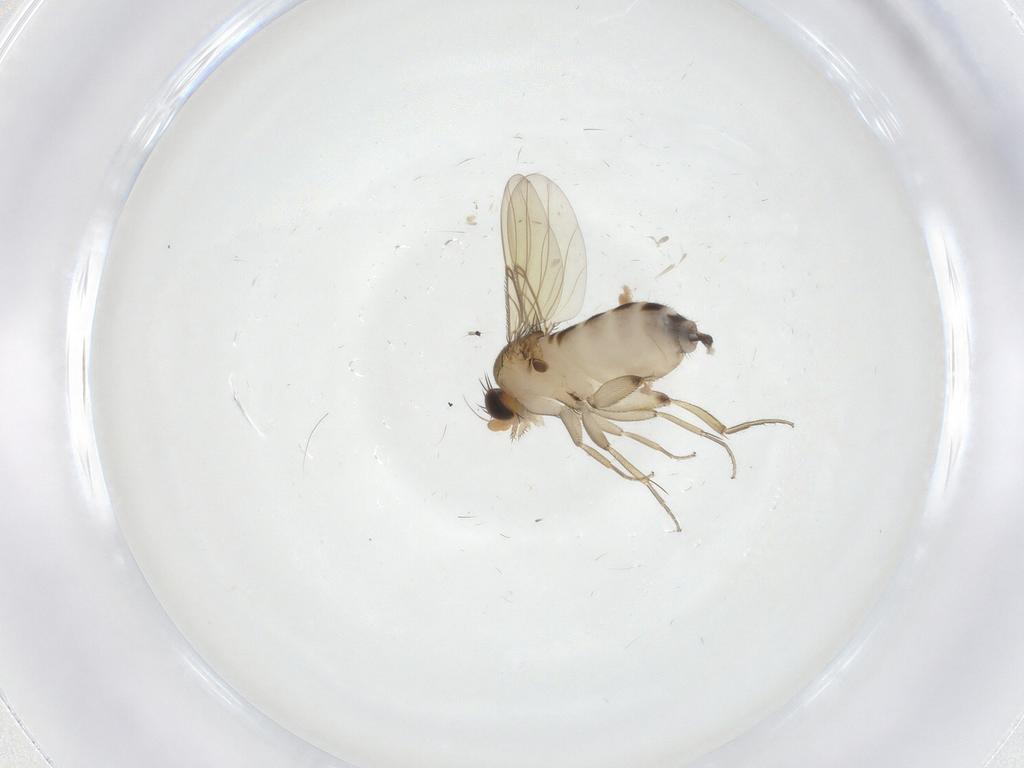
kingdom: Animalia
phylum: Arthropoda
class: Insecta
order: Diptera
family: Phoridae
